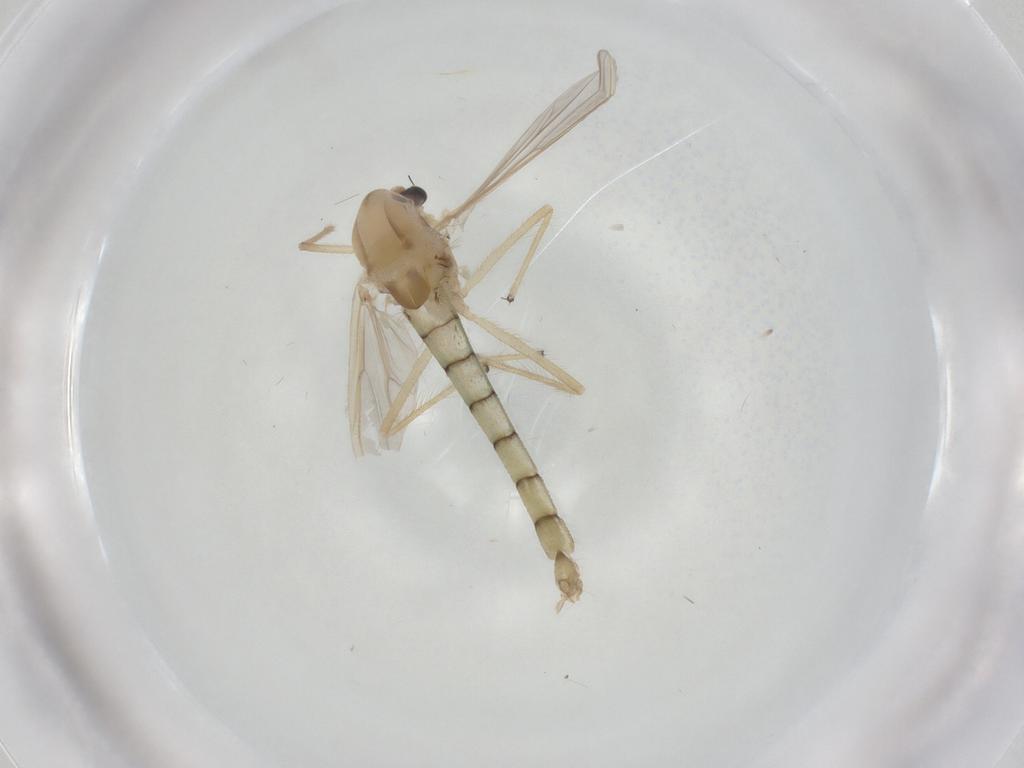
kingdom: Animalia
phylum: Arthropoda
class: Insecta
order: Diptera
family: Chironomidae
